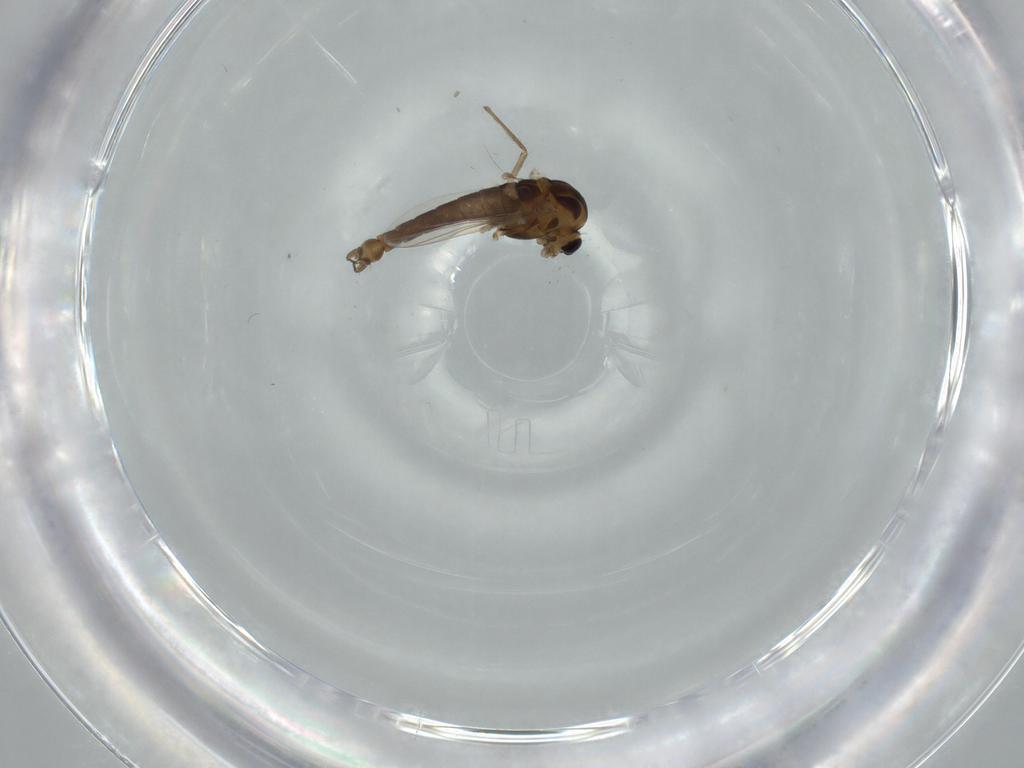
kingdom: Animalia
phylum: Arthropoda
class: Insecta
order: Diptera
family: Chironomidae
